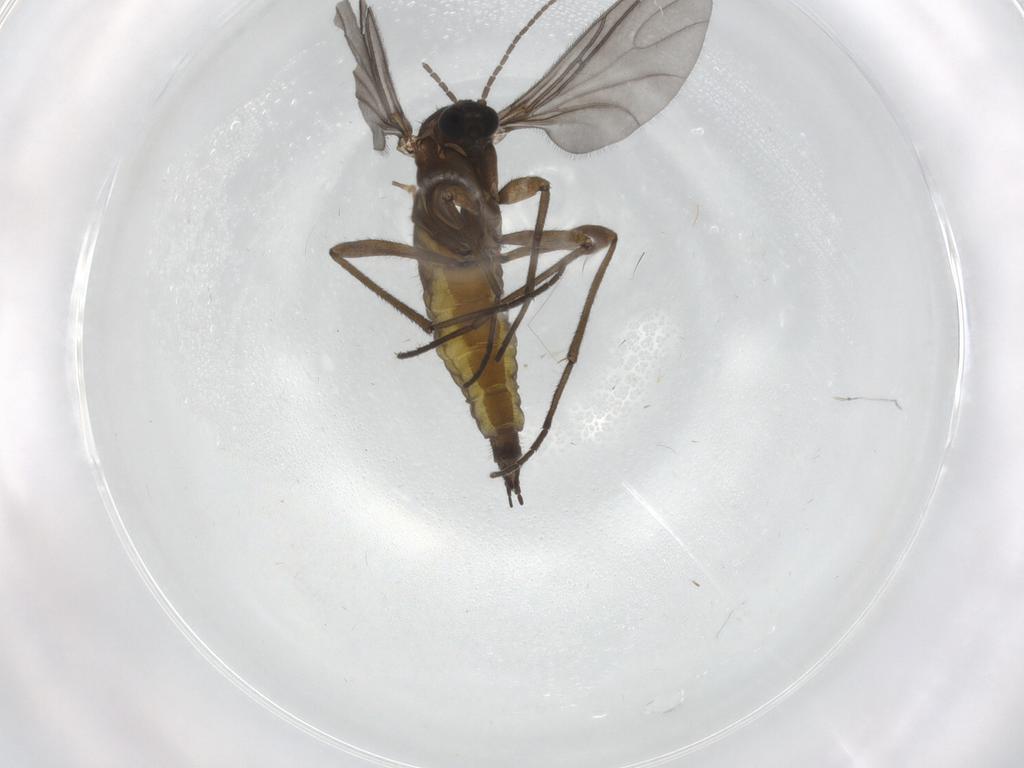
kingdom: Animalia
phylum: Arthropoda
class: Insecta
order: Diptera
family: Sciaridae
